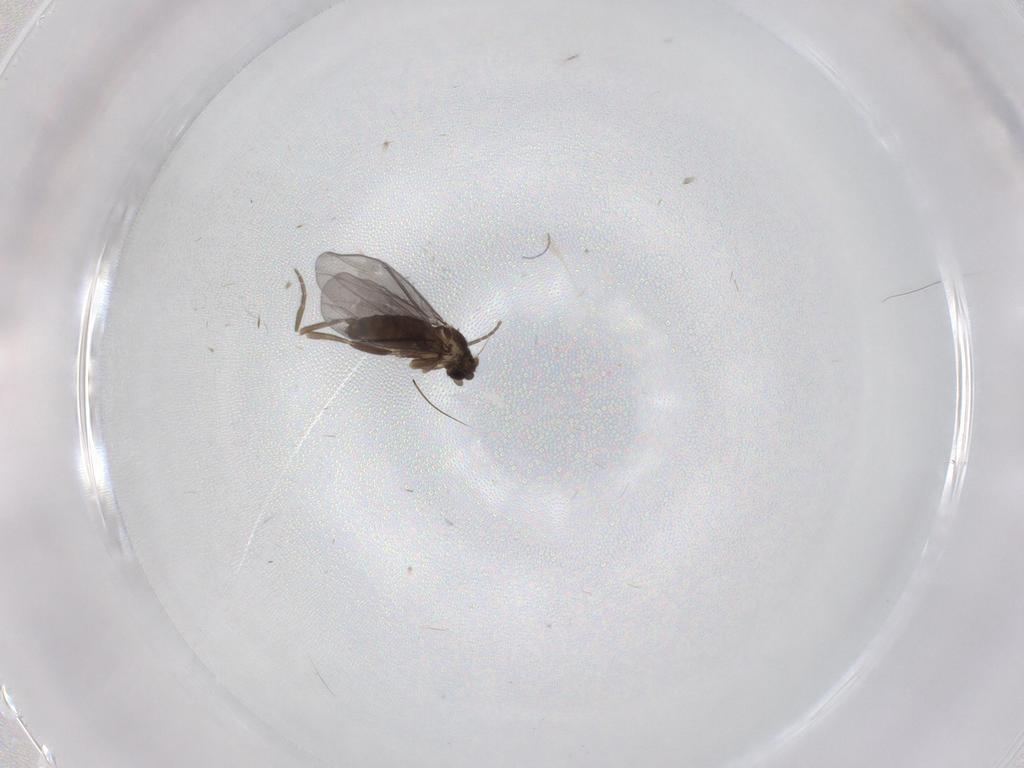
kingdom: Animalia
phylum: Arthropoda
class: Insecta
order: Diptera
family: Phoridae
